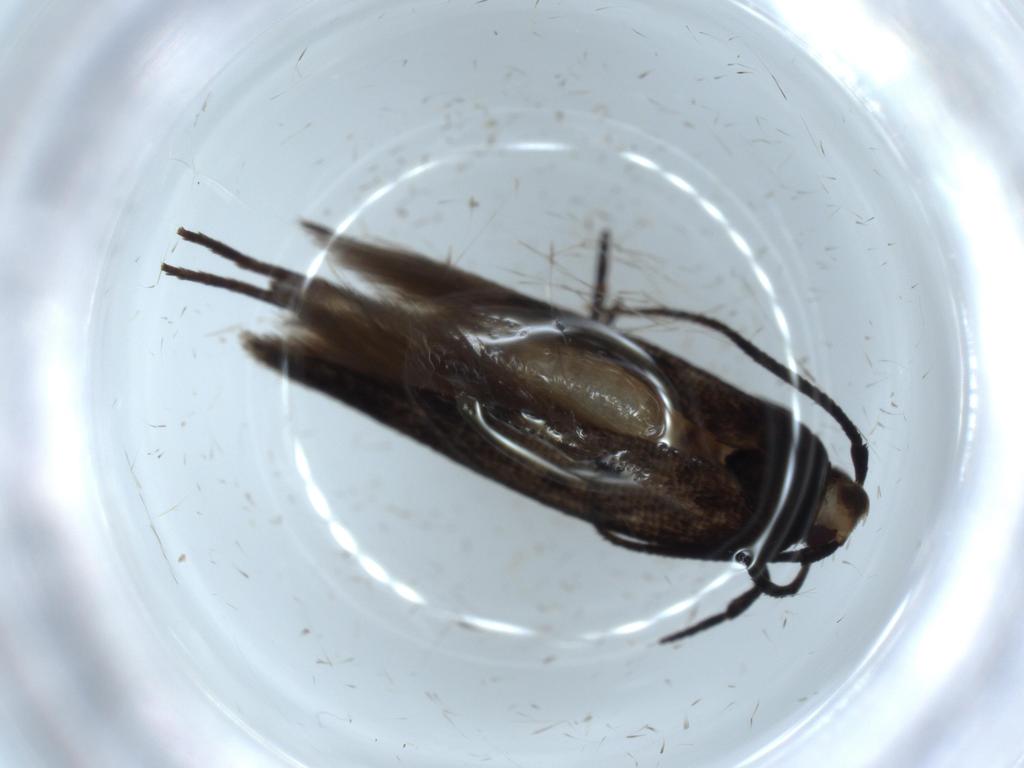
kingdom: Animalia
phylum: Arthropoda
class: Insecta
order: Lepidoptera
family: Cosmopterigidae
